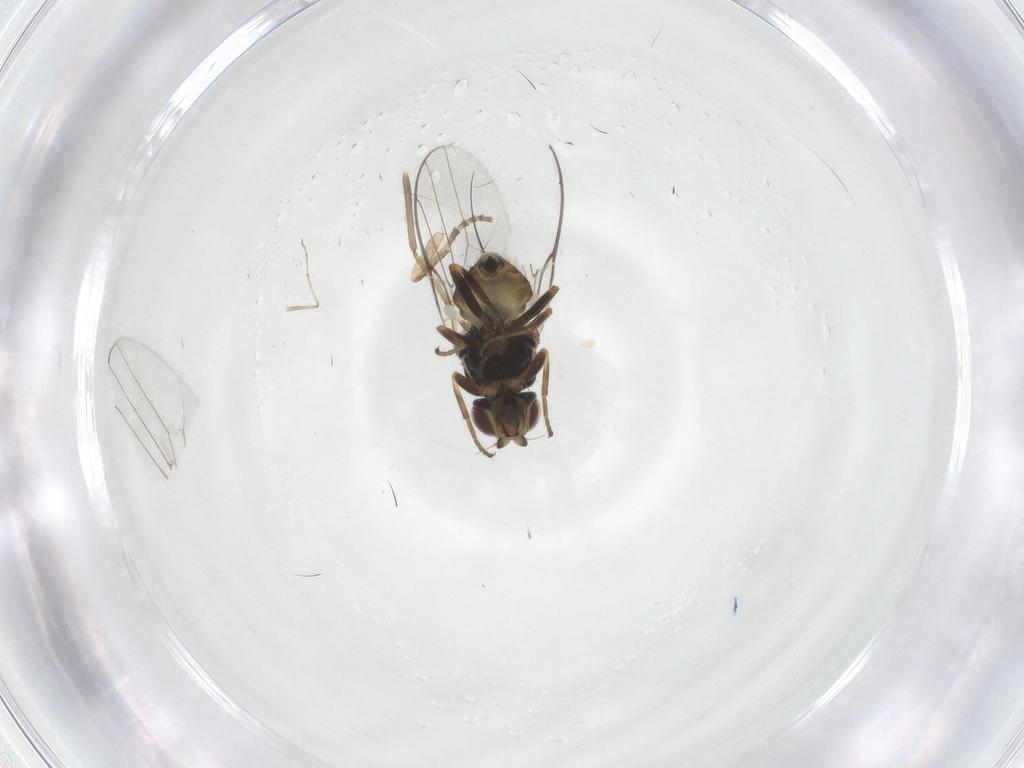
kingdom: Animalia
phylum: Arthropoda
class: Insecta
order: Diptera
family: Chloropidae
